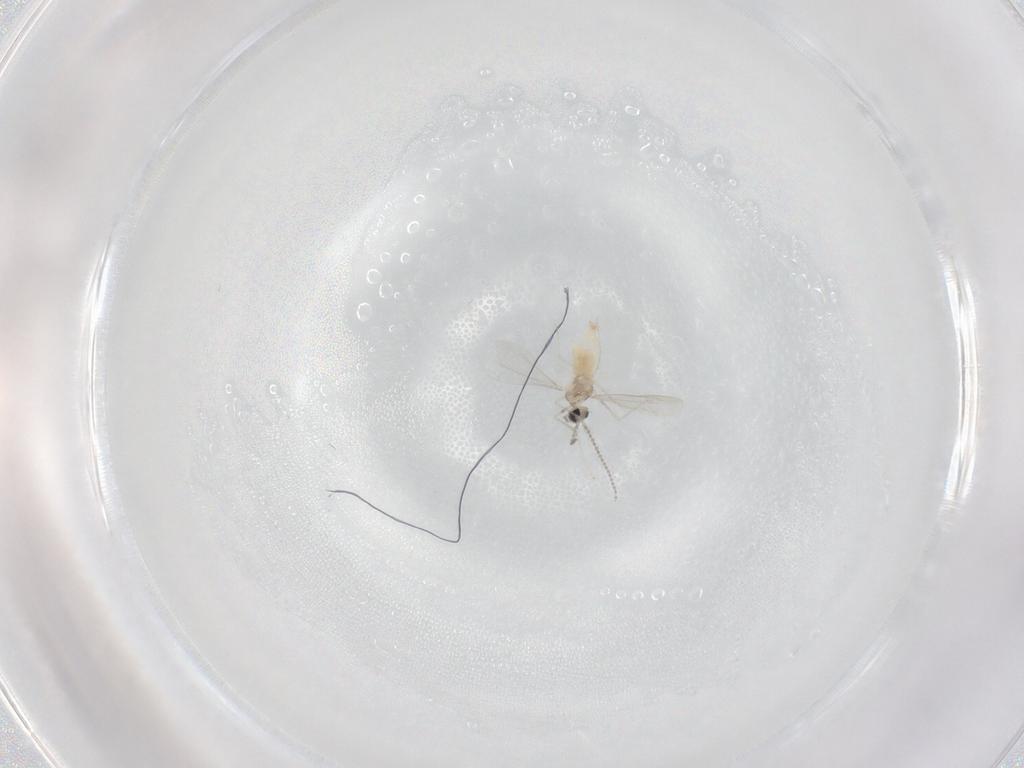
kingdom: Animalia
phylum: Arthropoda
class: Insecta
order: Diptera
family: Cecidomyiidae
